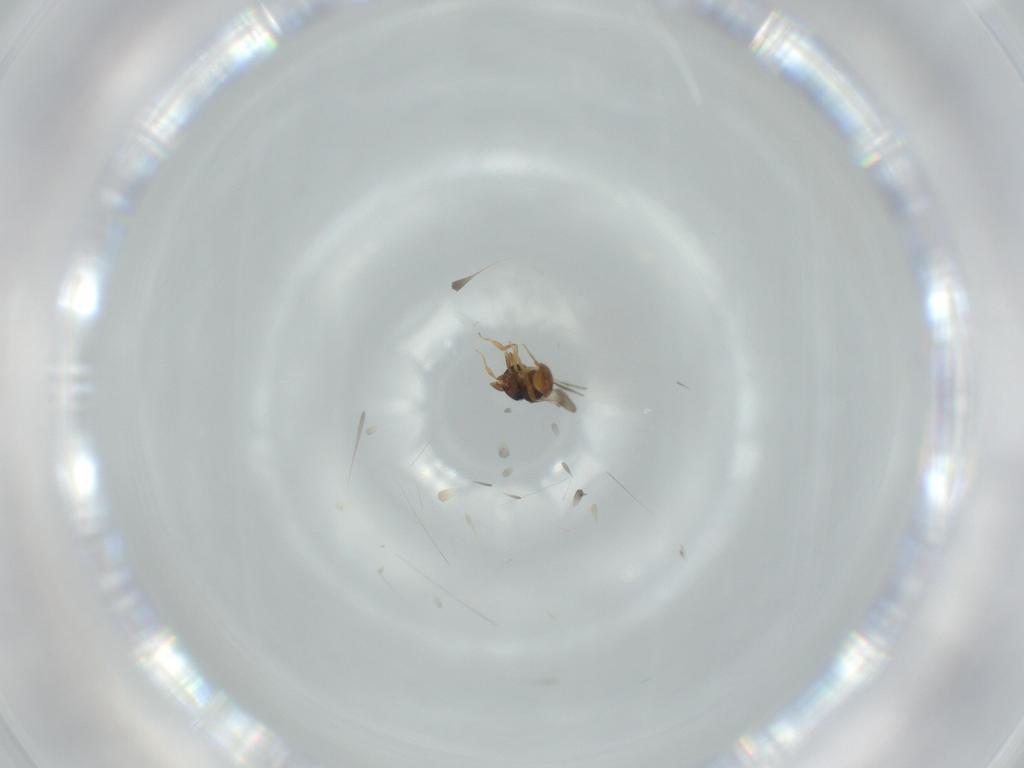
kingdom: Animalia
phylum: Arthropoda
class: Insecta
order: Hymenoptera
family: Scelionidae
